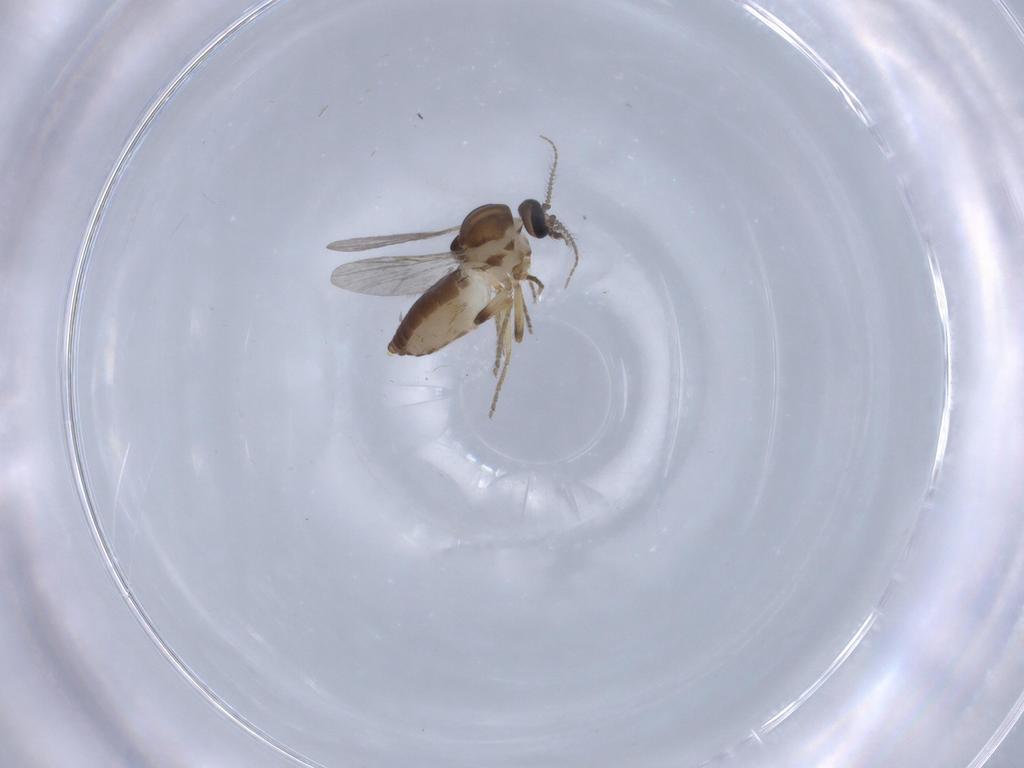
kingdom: Animalia
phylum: Arthropoda
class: Insecta
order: Diptera
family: Ceratopogonidae
